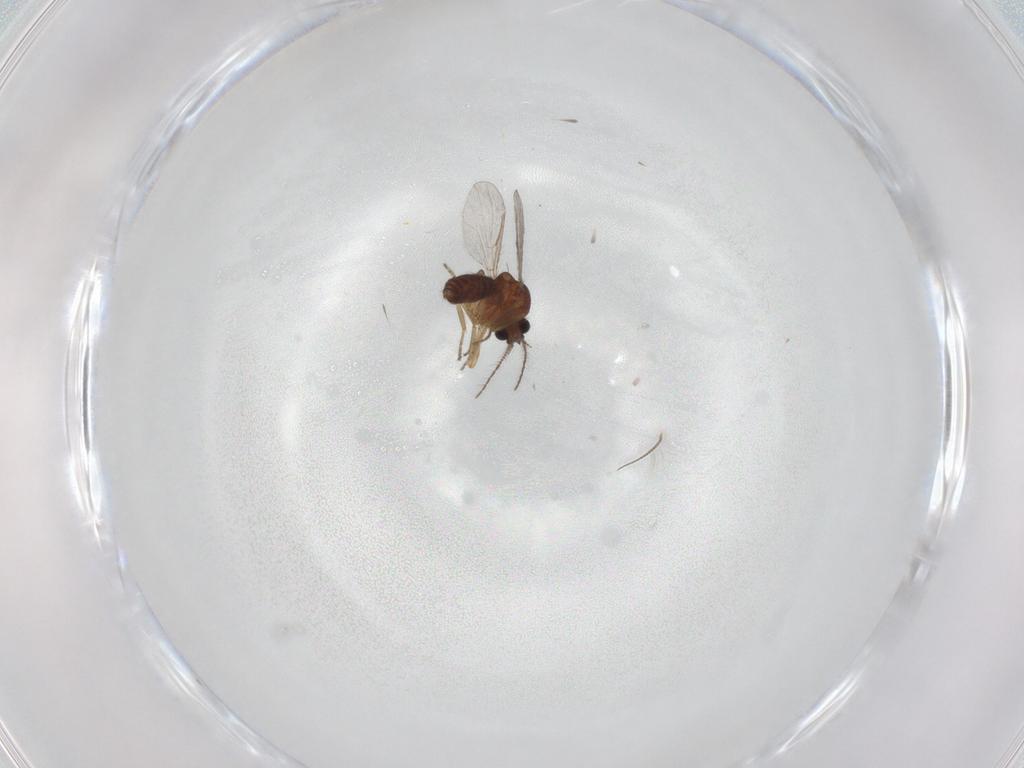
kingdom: Animalia
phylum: Arthropoda
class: Insecta
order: Diptera
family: Ceratopogonidae
